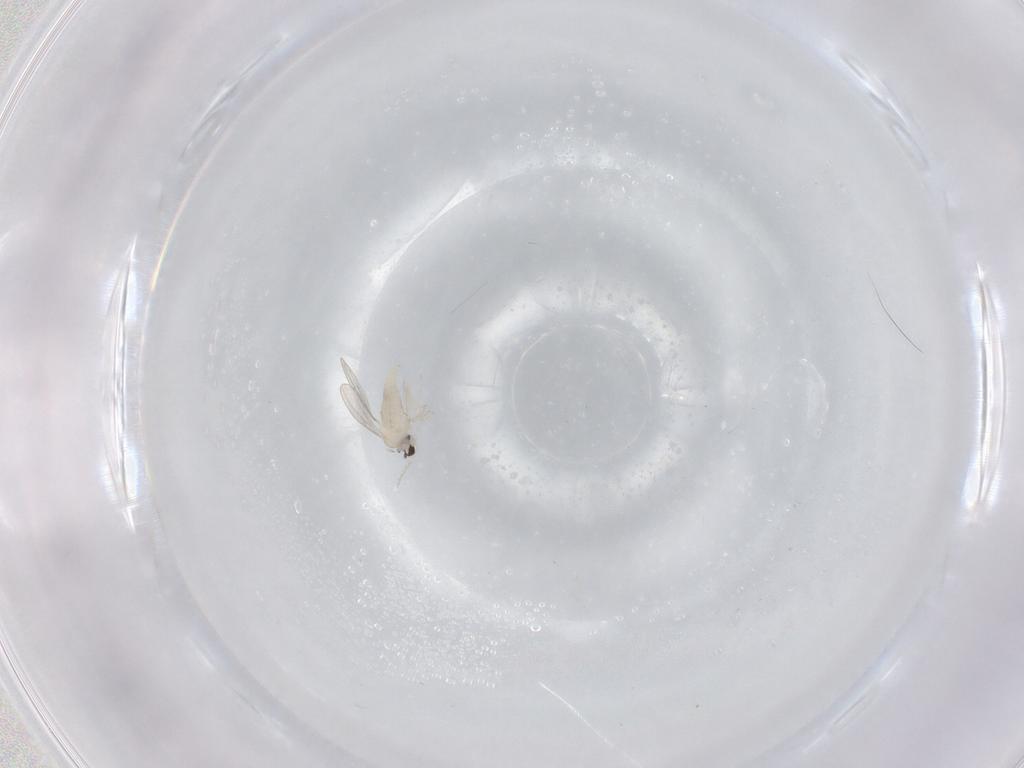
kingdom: Animalia
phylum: Arthropoda
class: Insecta
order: Diptera
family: Cecidomyiidae
